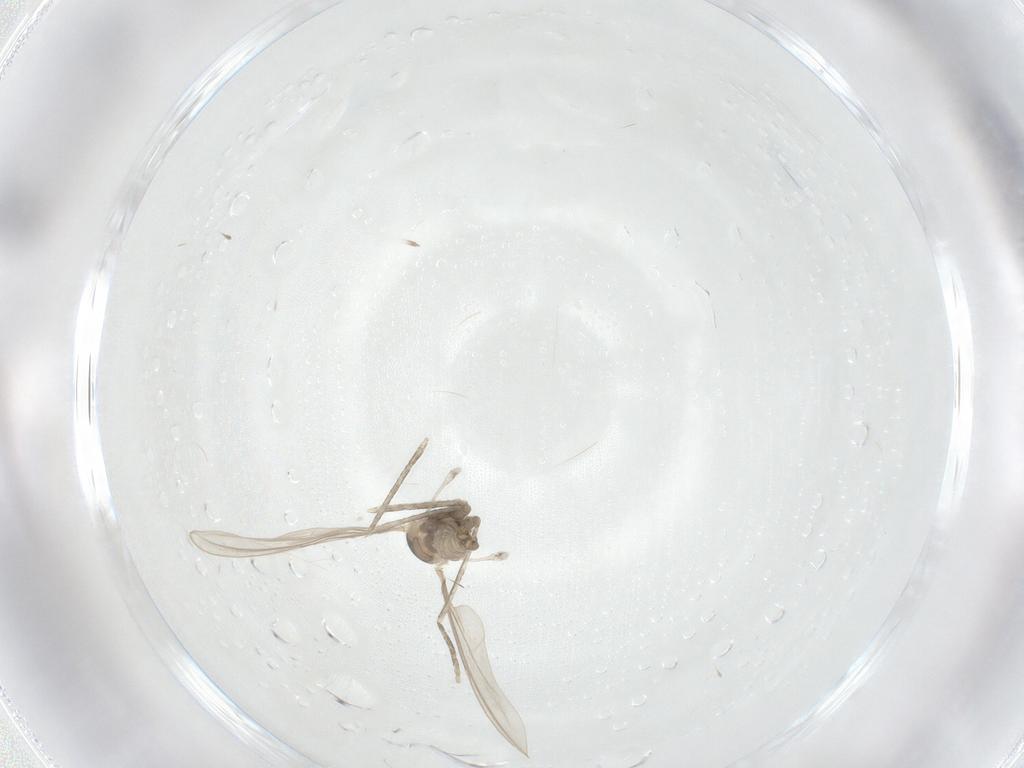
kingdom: Animalia
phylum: Arthropoda
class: Insecta
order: Diptera
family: Cecidomyiidae
